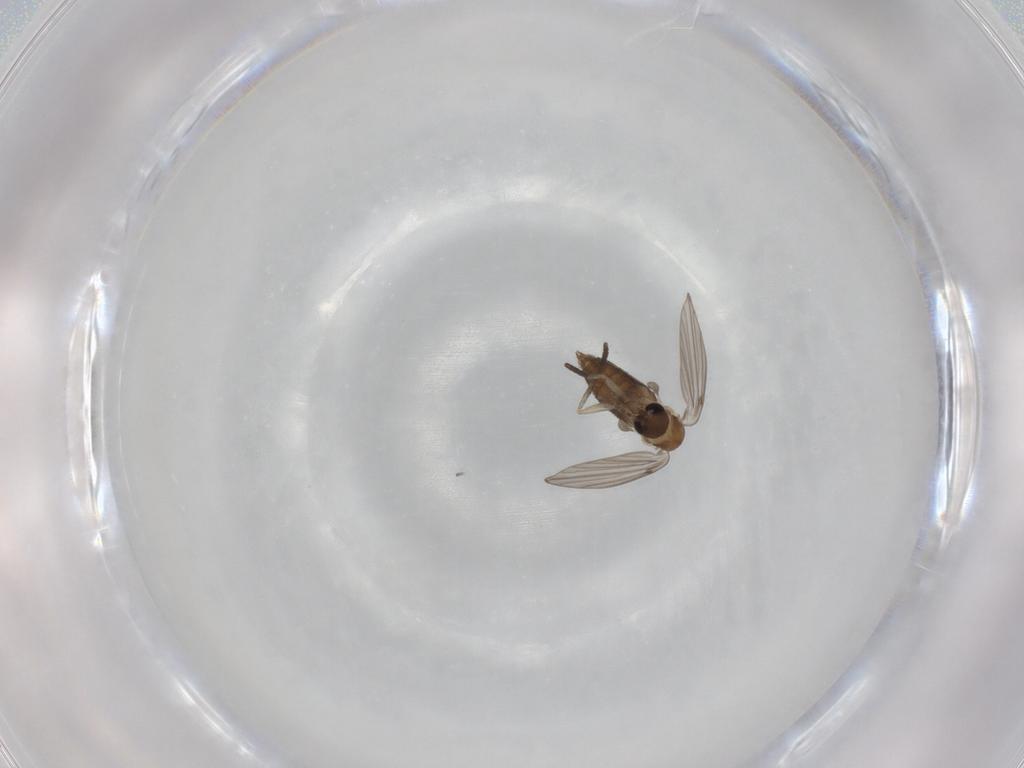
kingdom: Animalia
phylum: Arthropoda
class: Insecta
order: Diptera
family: Psychodidae
